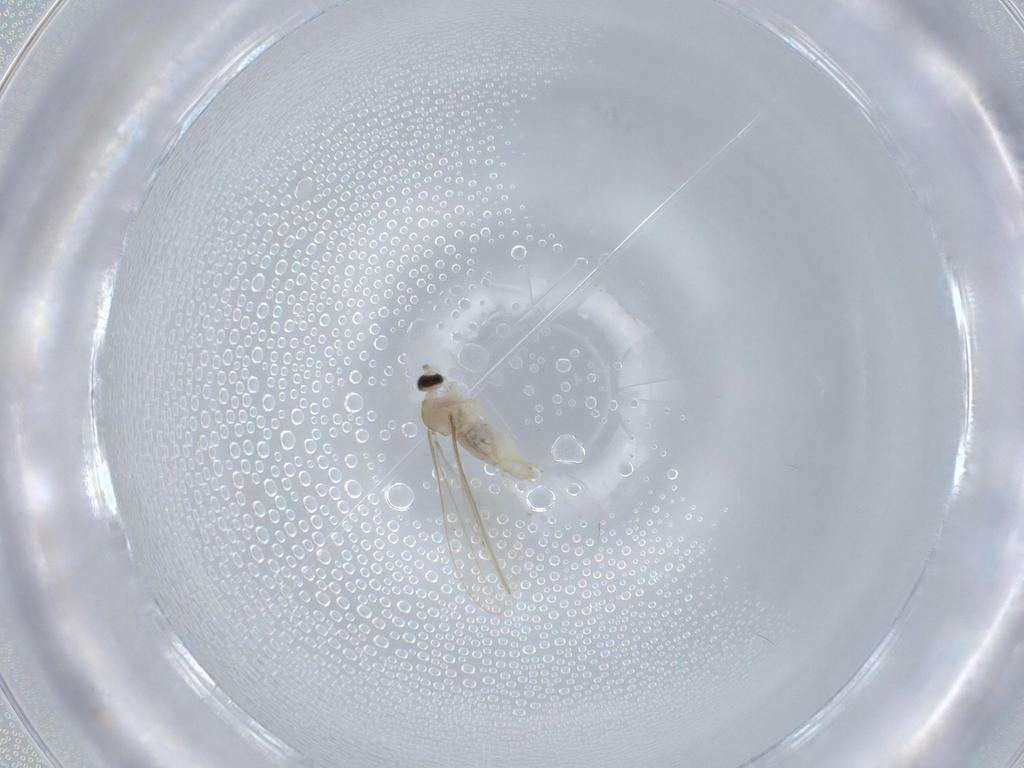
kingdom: Animalia
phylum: Arthropoda
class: Insecta
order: Diptera
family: Cecidomyiidae
